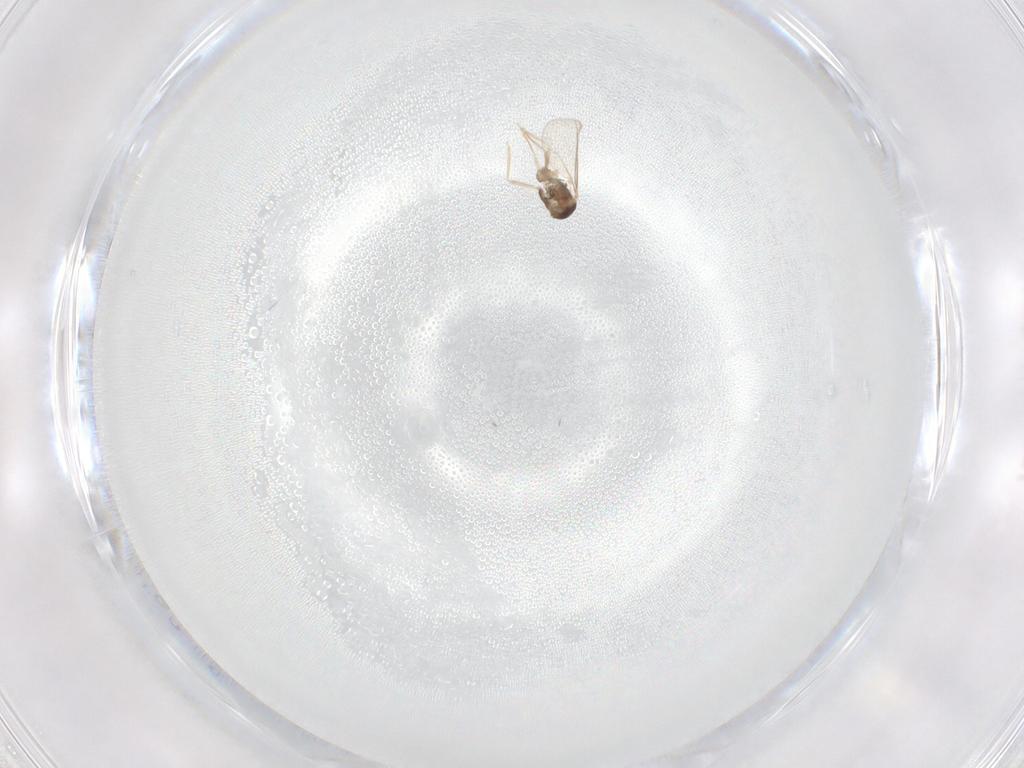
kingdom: Animalia
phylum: Arthropoda
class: Insecta
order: Diptera
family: Cecidomyiidae
